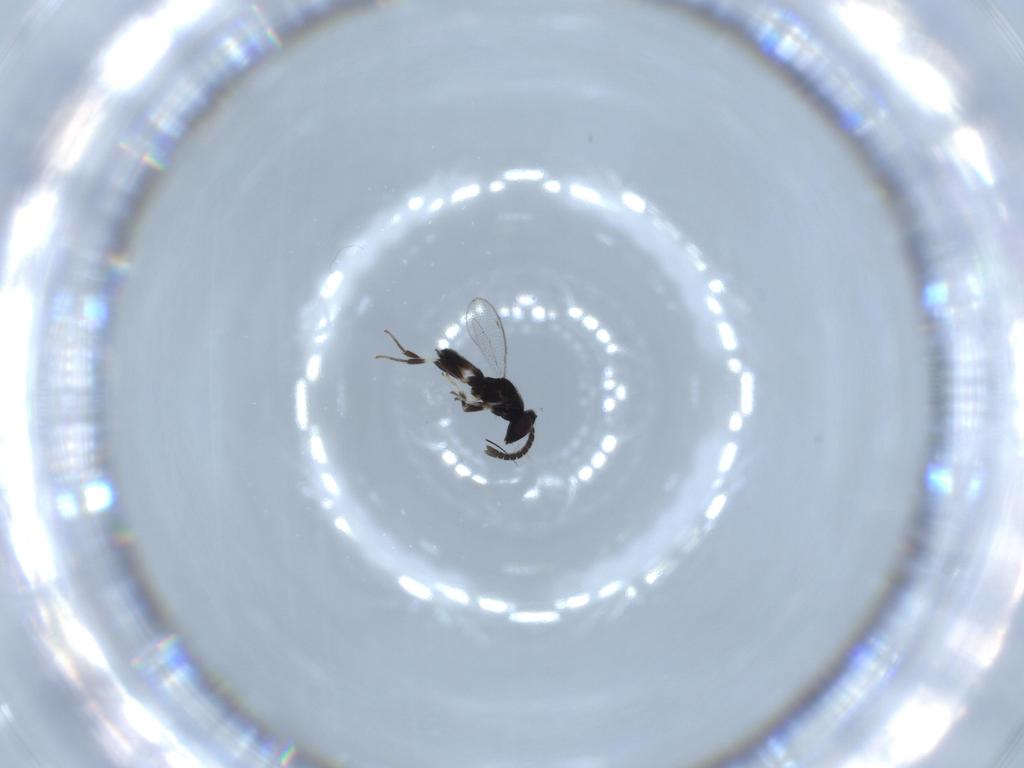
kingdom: Animalia
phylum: Arthropoda
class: Insecta
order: Hymenoptera
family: Eupelmidae
